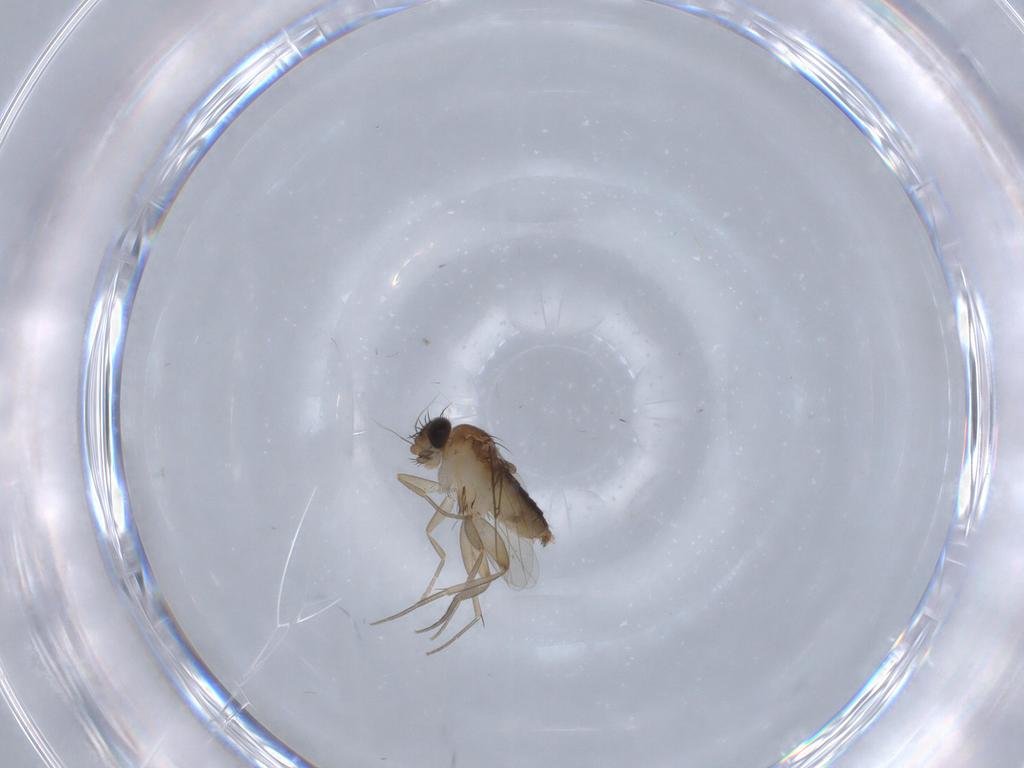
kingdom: Animalia
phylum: Arthropoda
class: Insecta
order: Diptera
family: Phoridae
